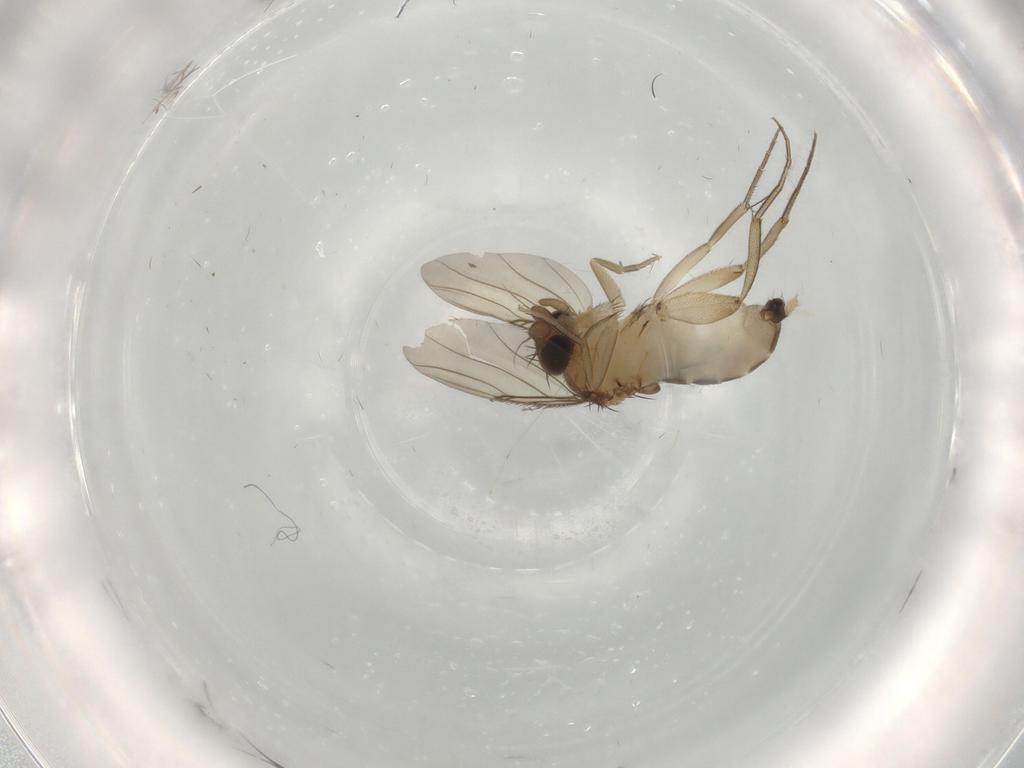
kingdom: Animalia
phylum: Arthropoda
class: Insecta
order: Diptera
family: Phoridae
